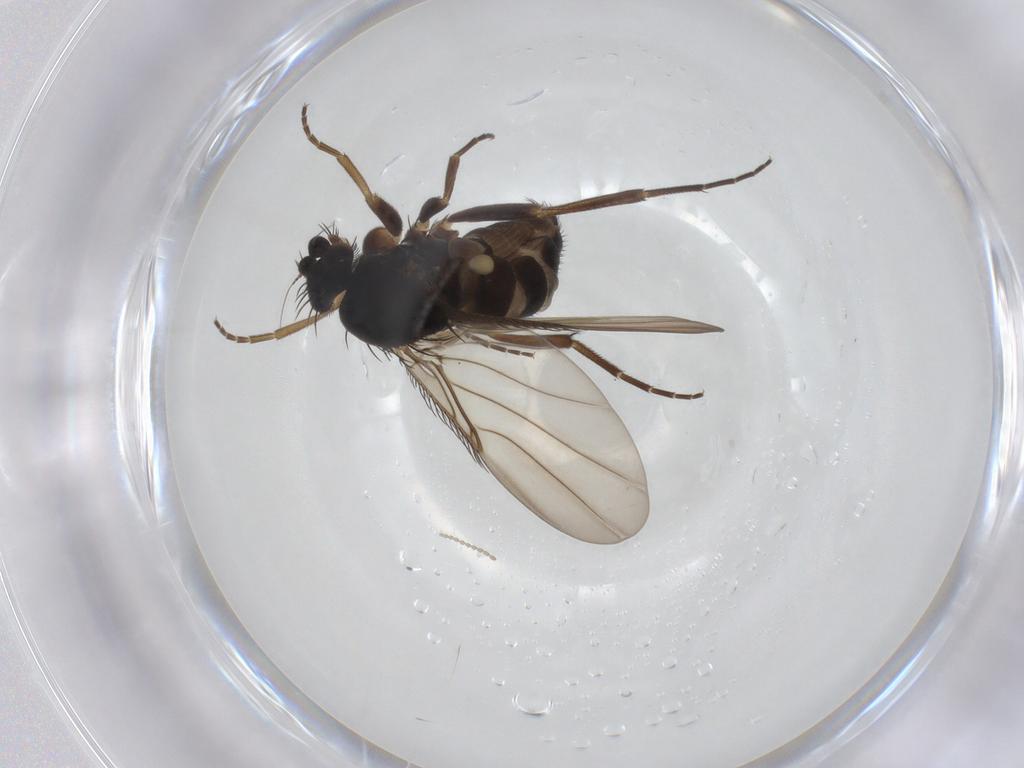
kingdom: Animalia
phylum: Arthropoda
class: Insecta
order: Diptera
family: Phoridae
